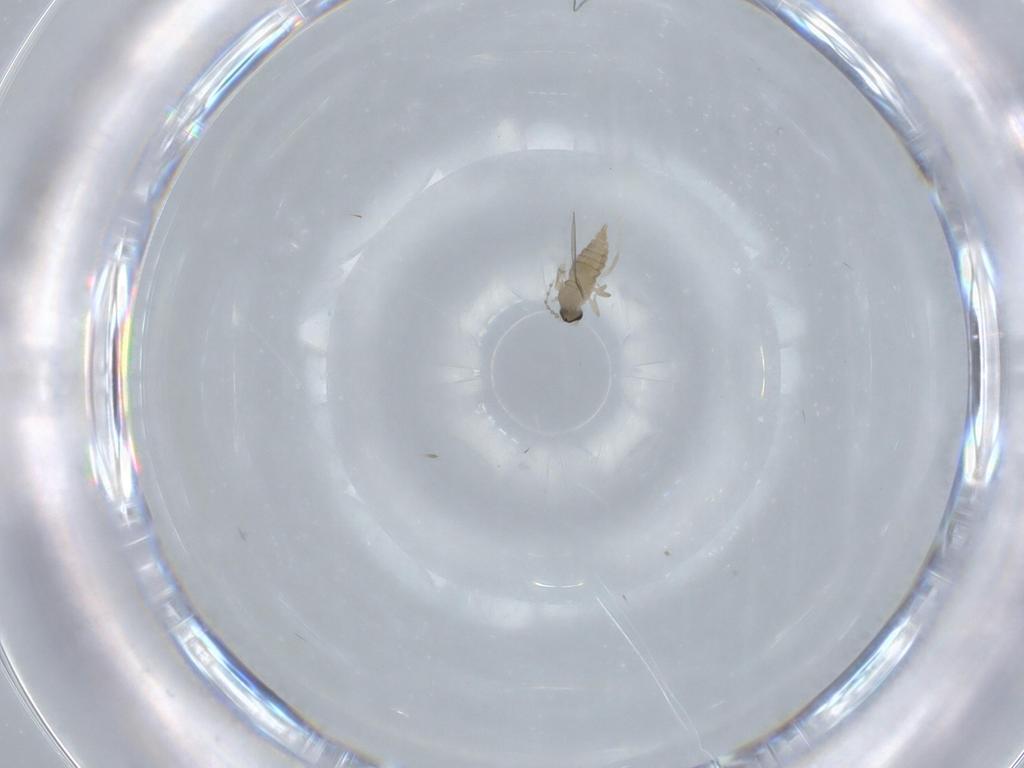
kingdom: Animalia
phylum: Arthropoda
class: Insecta
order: Diptera
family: Cecidomyiidae
